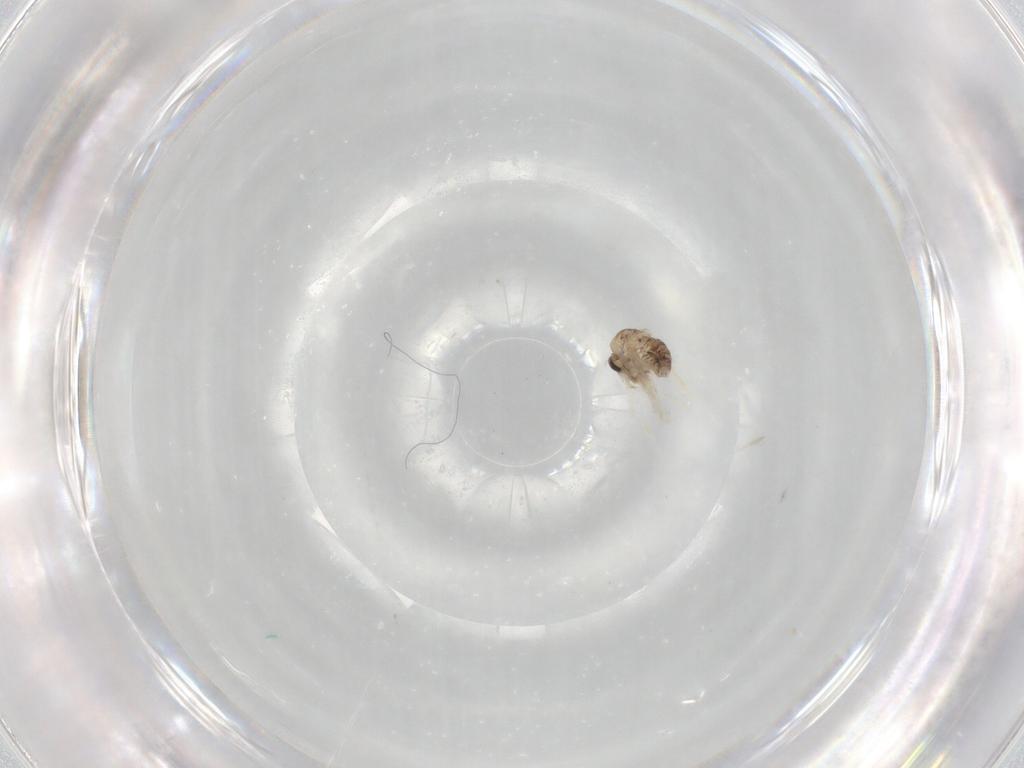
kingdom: Animalia
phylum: Arthropoda
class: Insecta
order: Diptera
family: Chironomidae
